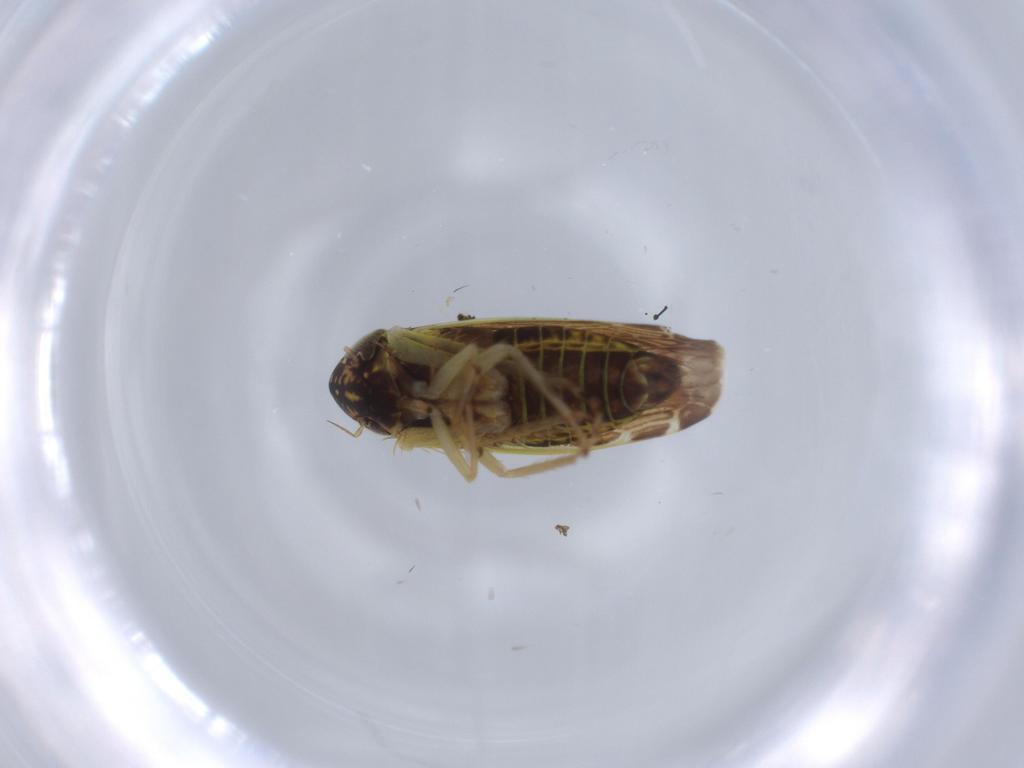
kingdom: Animalia
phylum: Arthropoda
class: Insecta
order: Hemiptera
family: Cicadellidae
